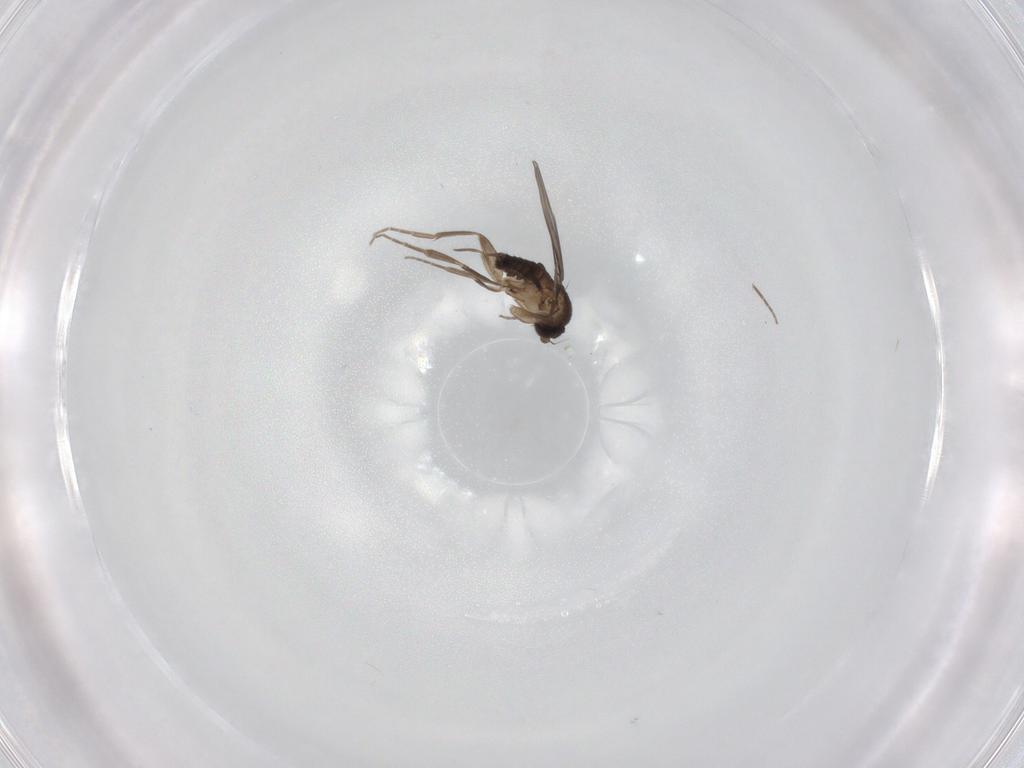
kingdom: Animalia
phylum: Arthropoda
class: Insecta
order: Diptera
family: Phoridae
